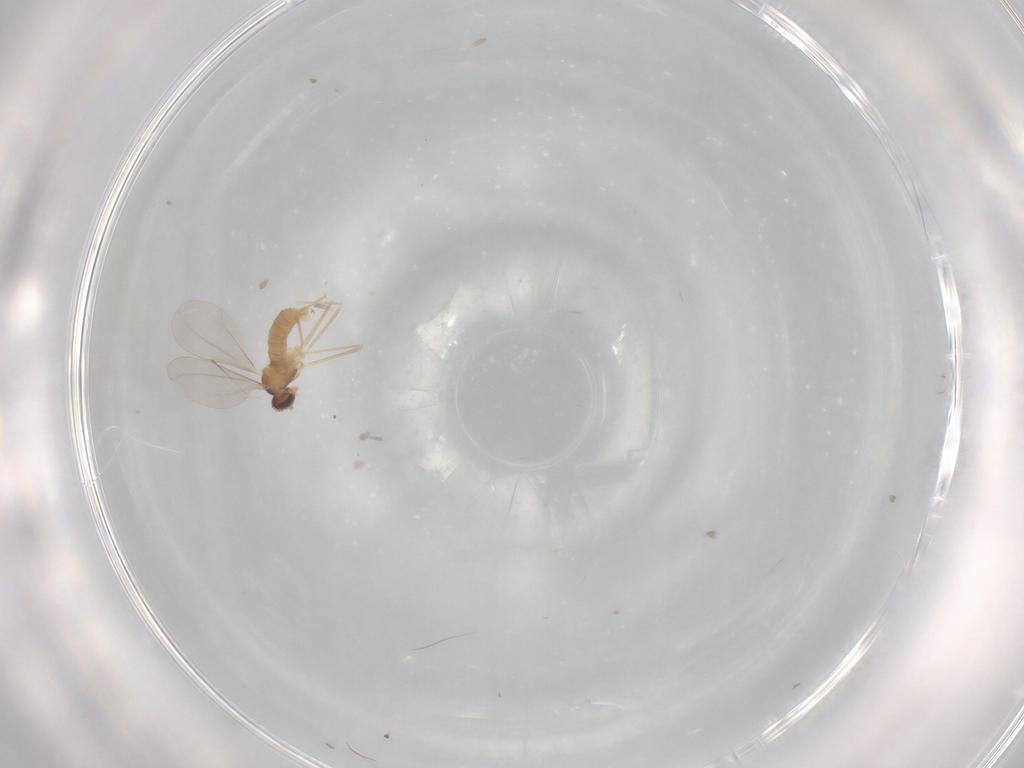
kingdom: Animalia
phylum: Arthropoda
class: Insecta
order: Diptera
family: Cecidomyiidae
